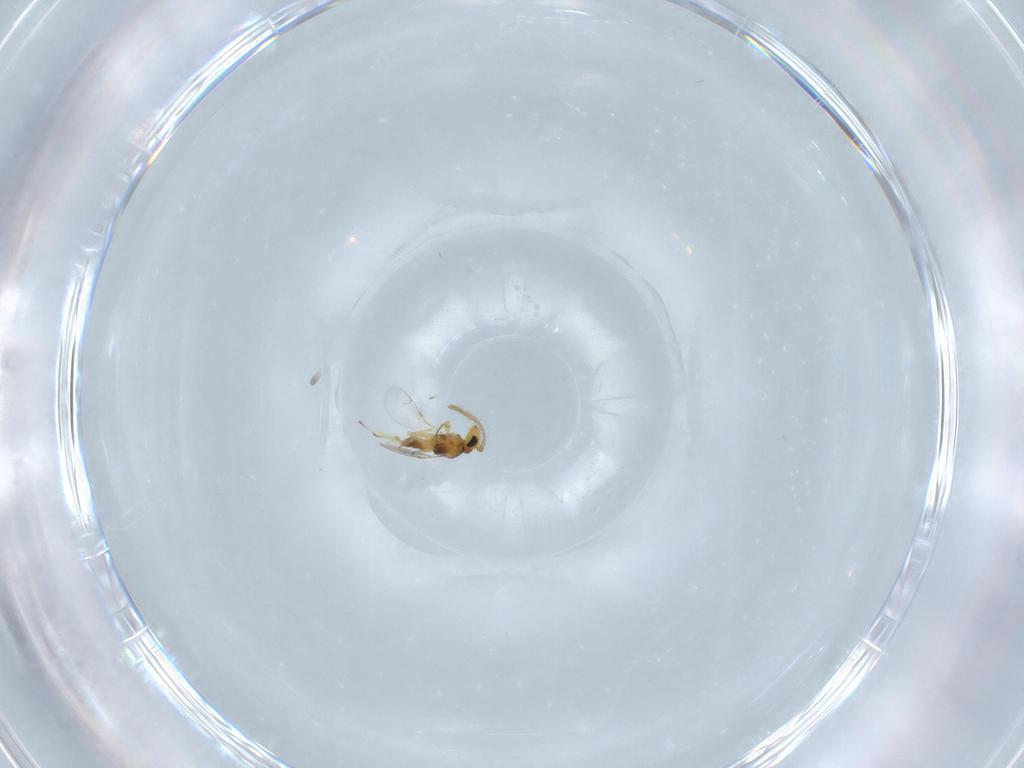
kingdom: Animalia
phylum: Arthropoda
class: Insecta
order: Hymenoptera
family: Encyrtidae
